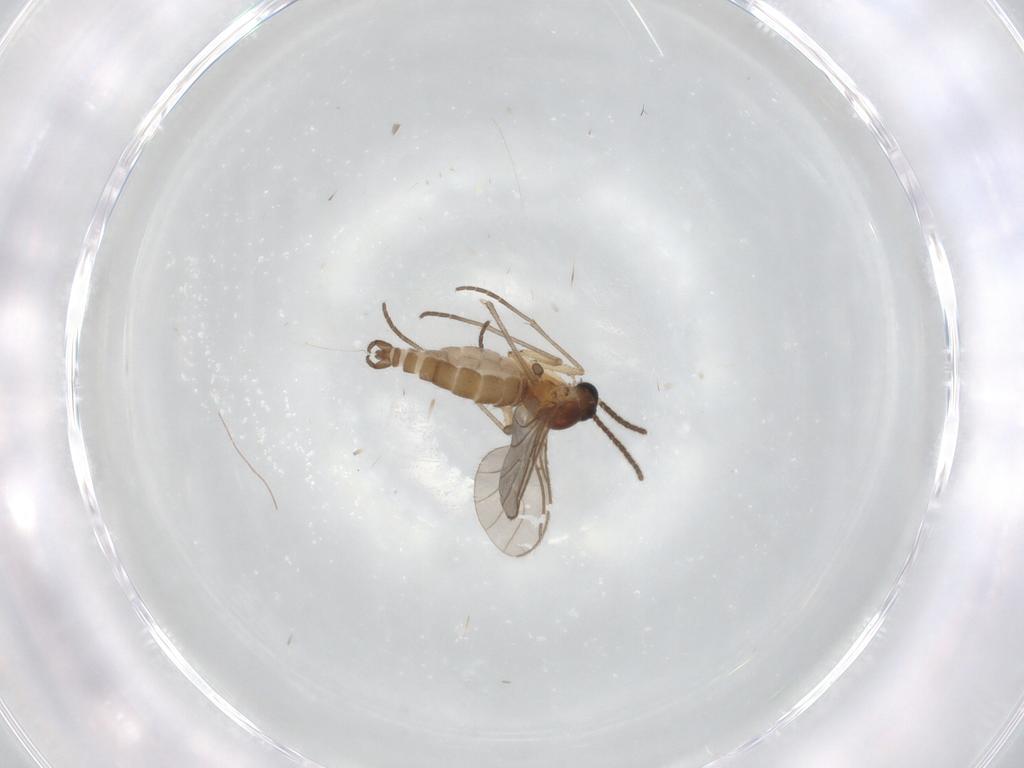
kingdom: Animalia
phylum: Arthropoda
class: Insecta
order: Diptera
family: Sciaridae
